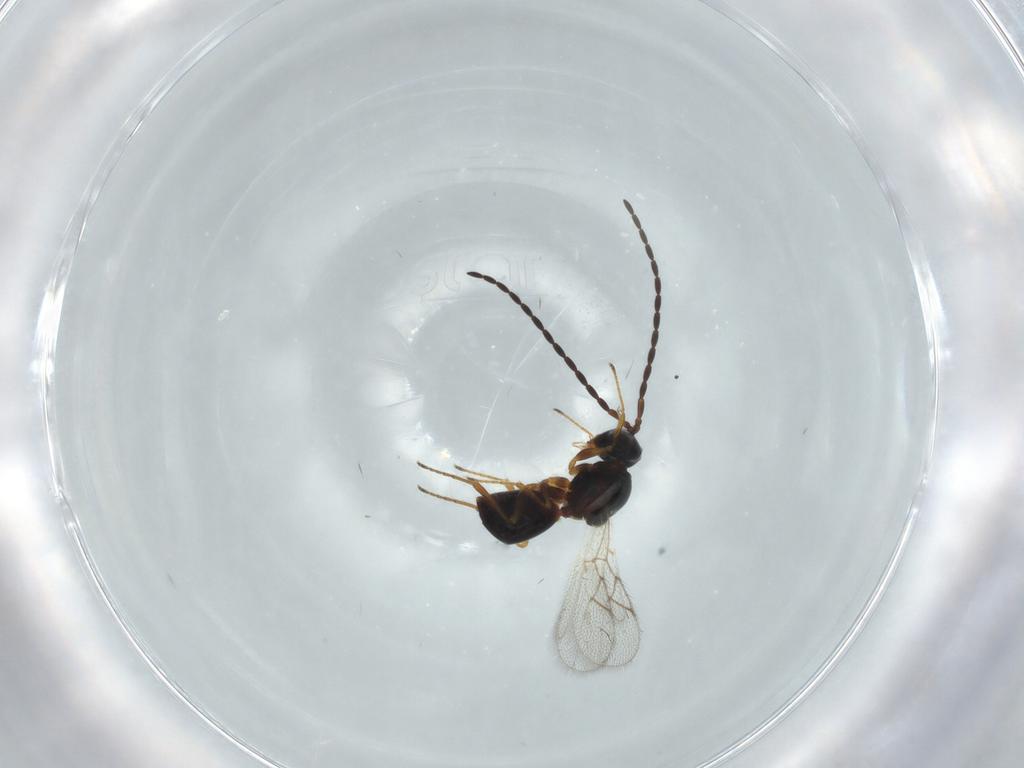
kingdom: Animalia
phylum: Arthropoda
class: Insecta
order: Hymenoptera
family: Figitidae
